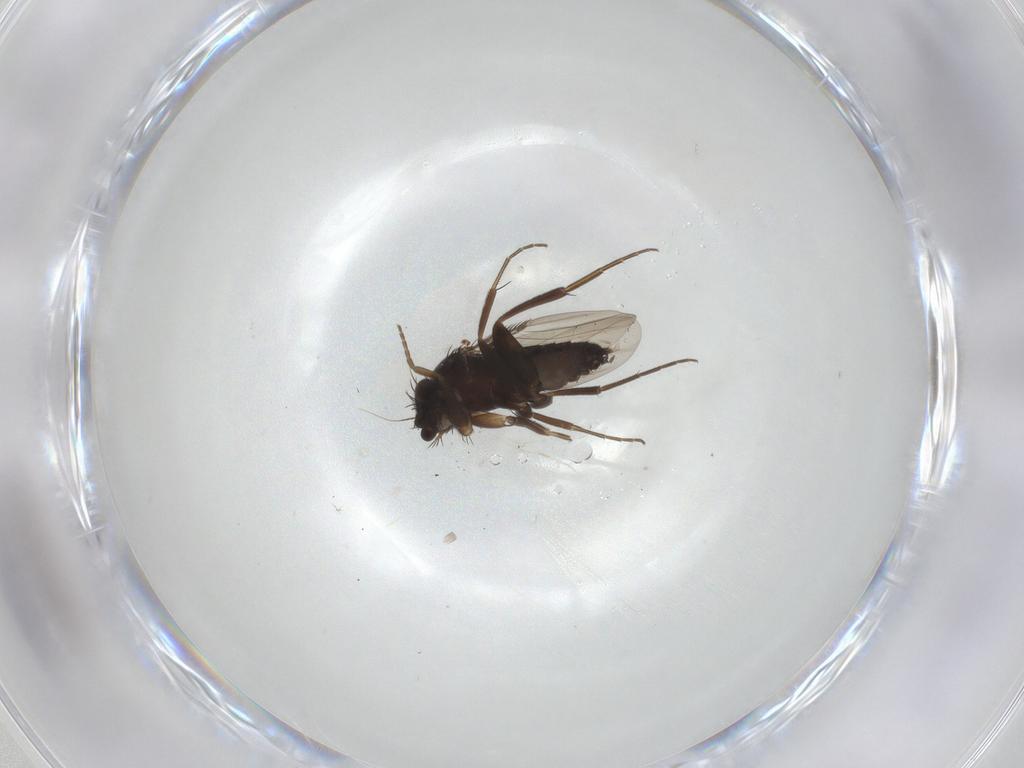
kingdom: Animalia
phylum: Arthropoda
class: Insecta
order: Diptera
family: Phoridae
